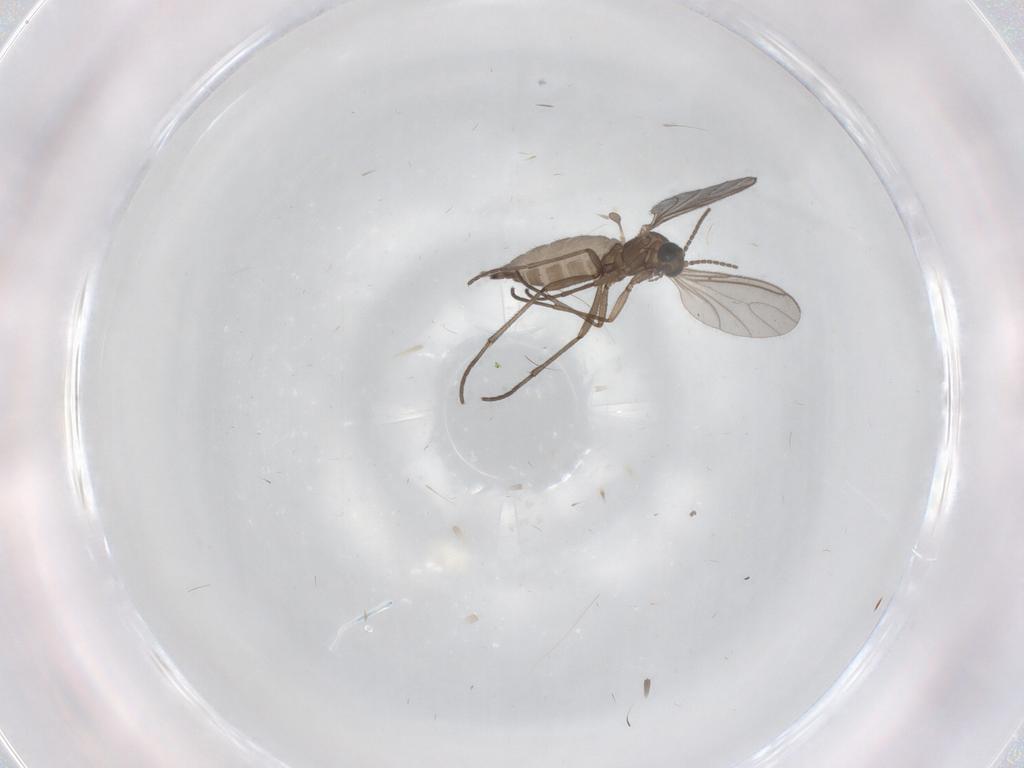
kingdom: Animalia
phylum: Arthropoda
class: Insecta
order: Diptera
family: Sciaridae
